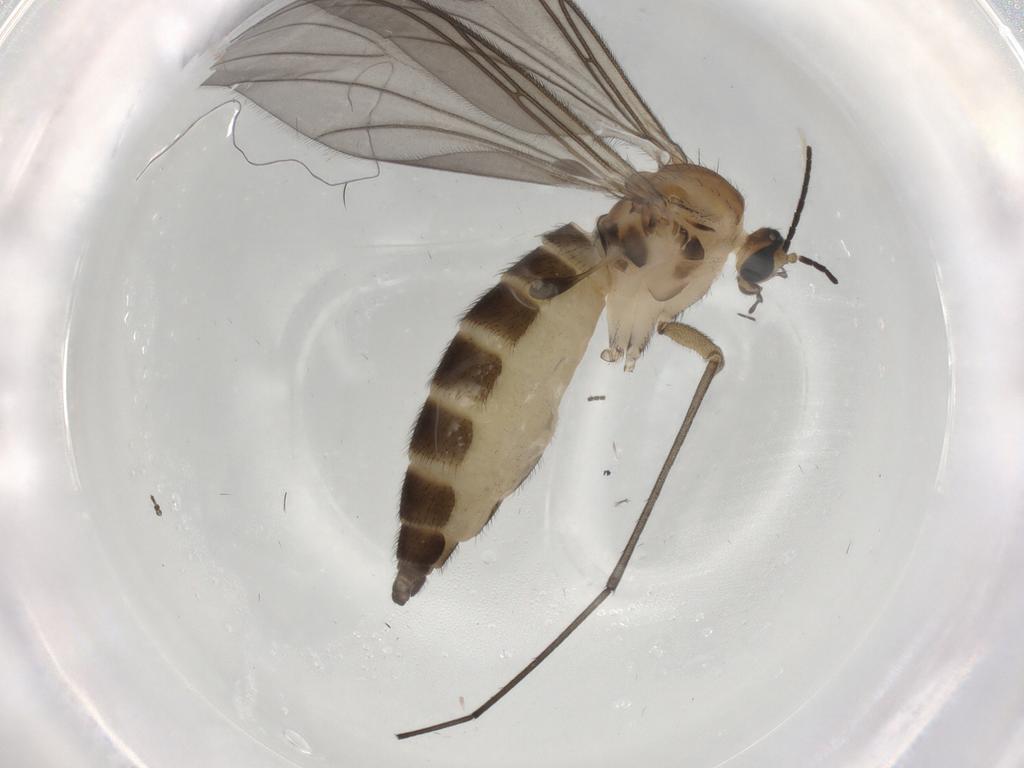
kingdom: Animalia
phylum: Arthropoda
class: Insecta
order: Diptera
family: Sciaridae
